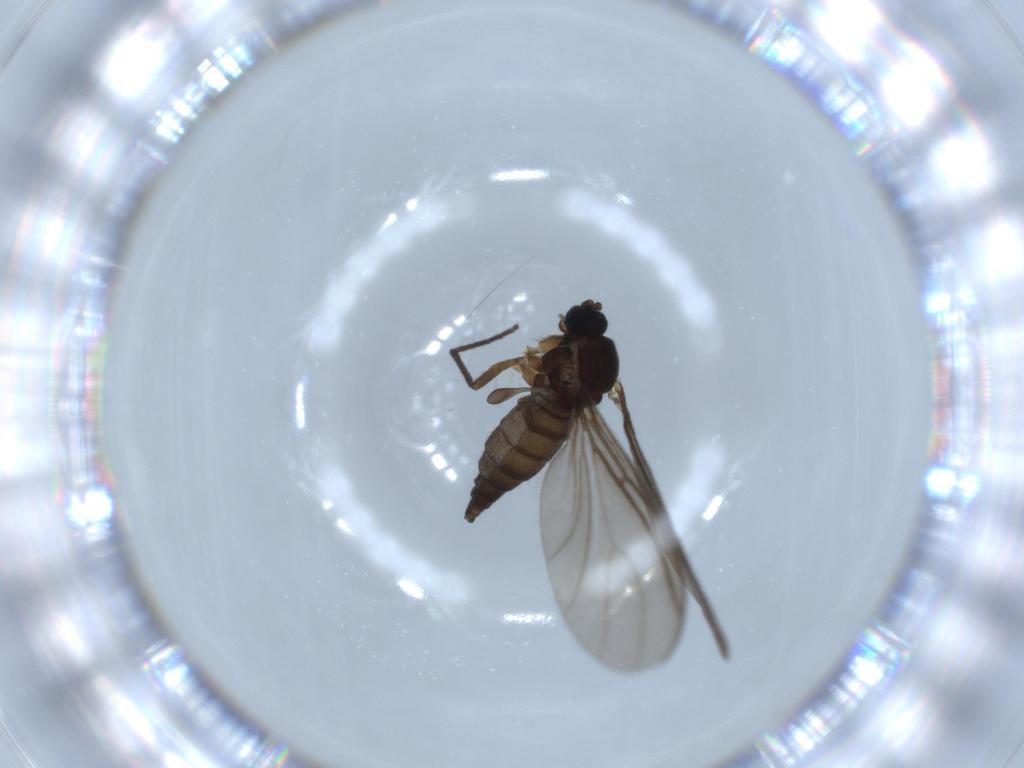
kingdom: Animalia
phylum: Arthropoda
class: Insecta
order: Diptera
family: Sciaridae
